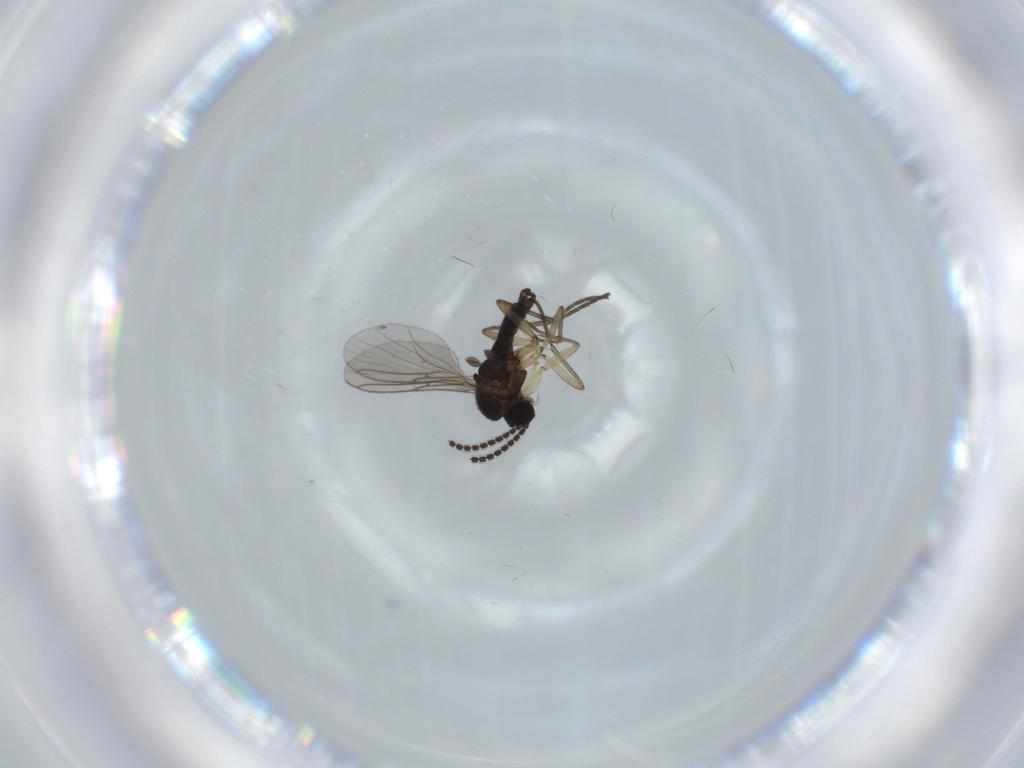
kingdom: Animalia
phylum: Arthropoda
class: Insecta
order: Diptera
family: Sciaridae
